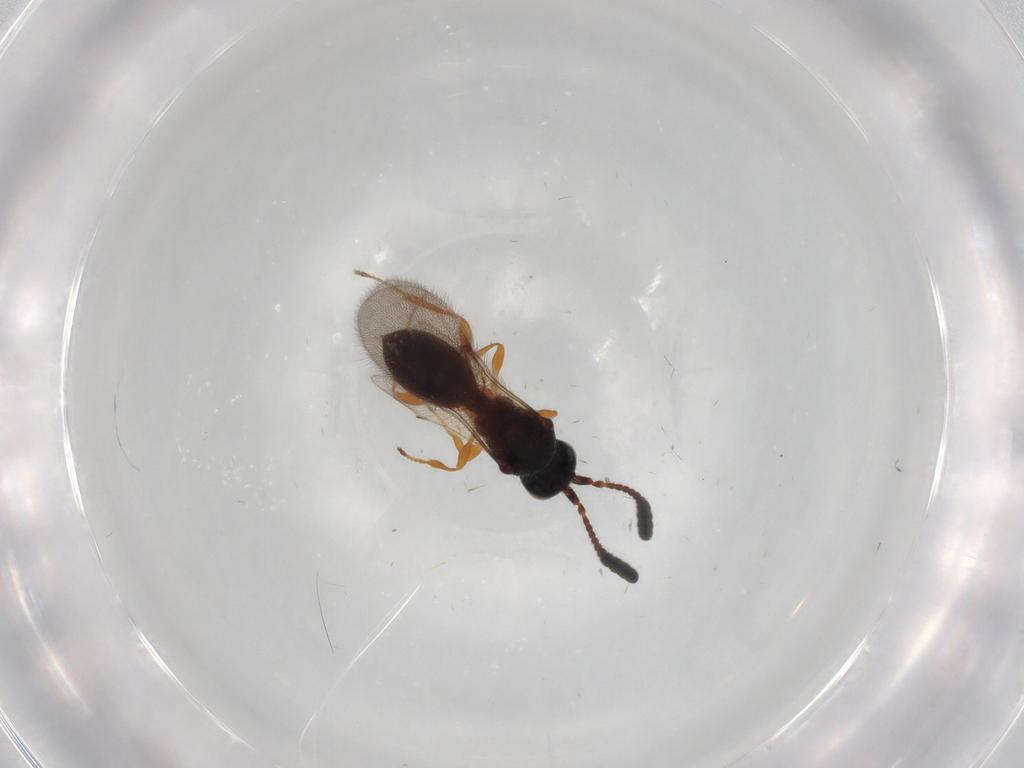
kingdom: Animalia
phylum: Arthropoda
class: Insecta
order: Hymenoptera
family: Diapriidae
